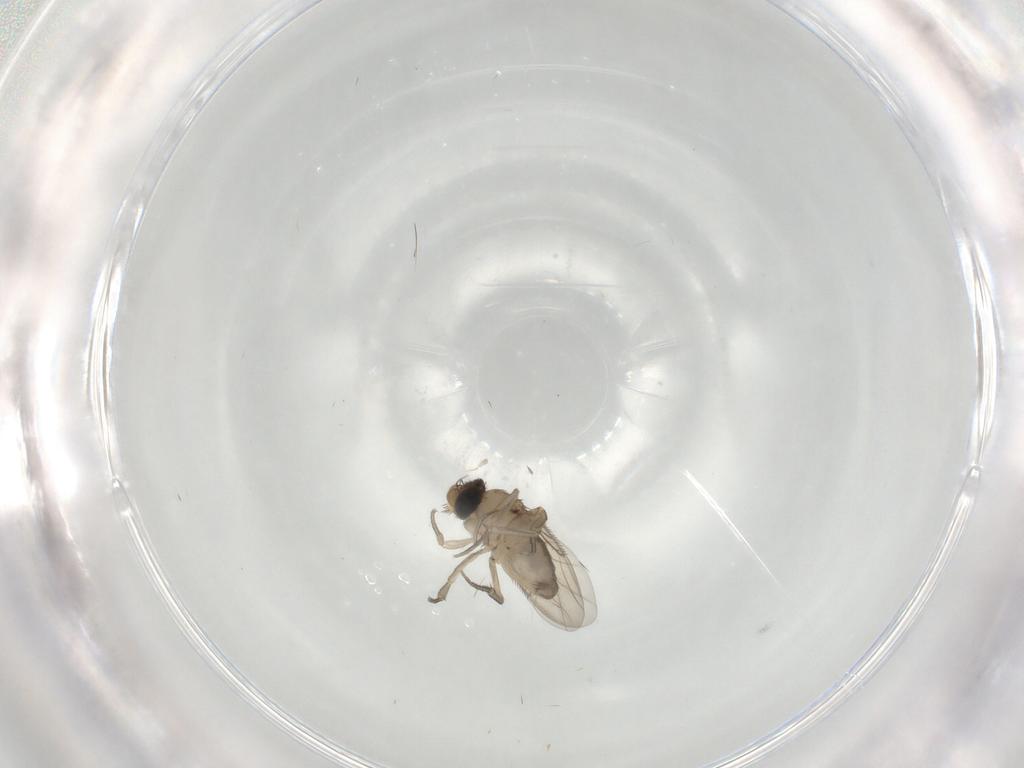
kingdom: Animalia
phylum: Arthropoda
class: Insecta
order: Diptera
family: Phoridae
